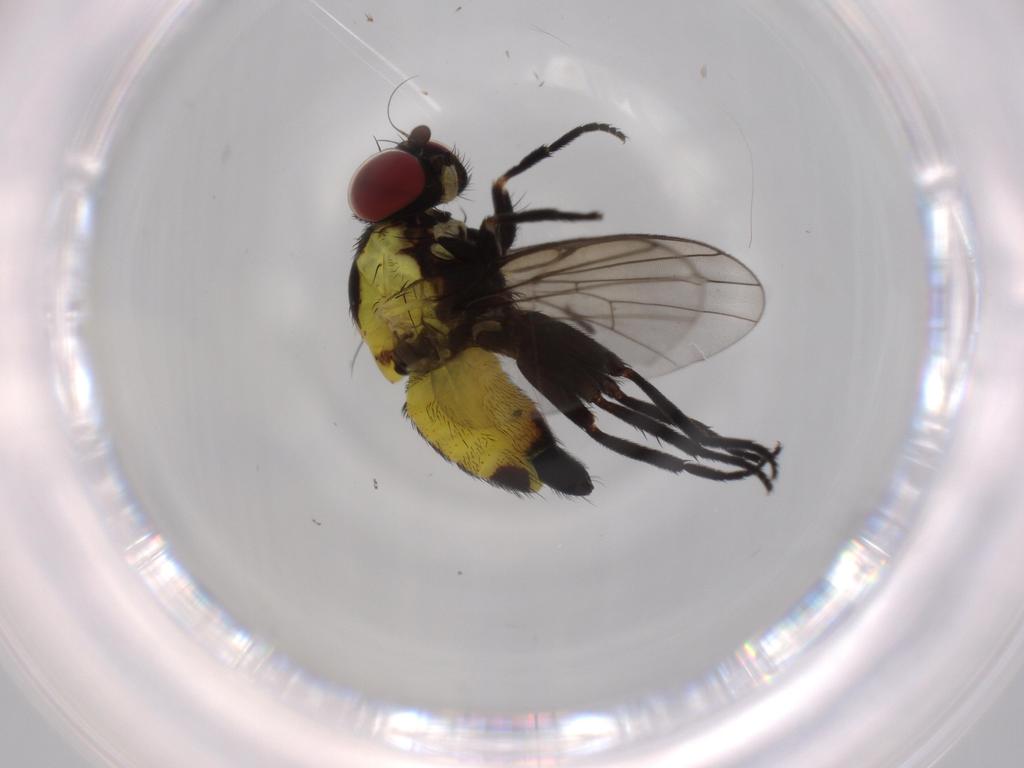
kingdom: Animalia
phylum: Arthropoda
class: Insecta
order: Diptera
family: Agromyzidae
